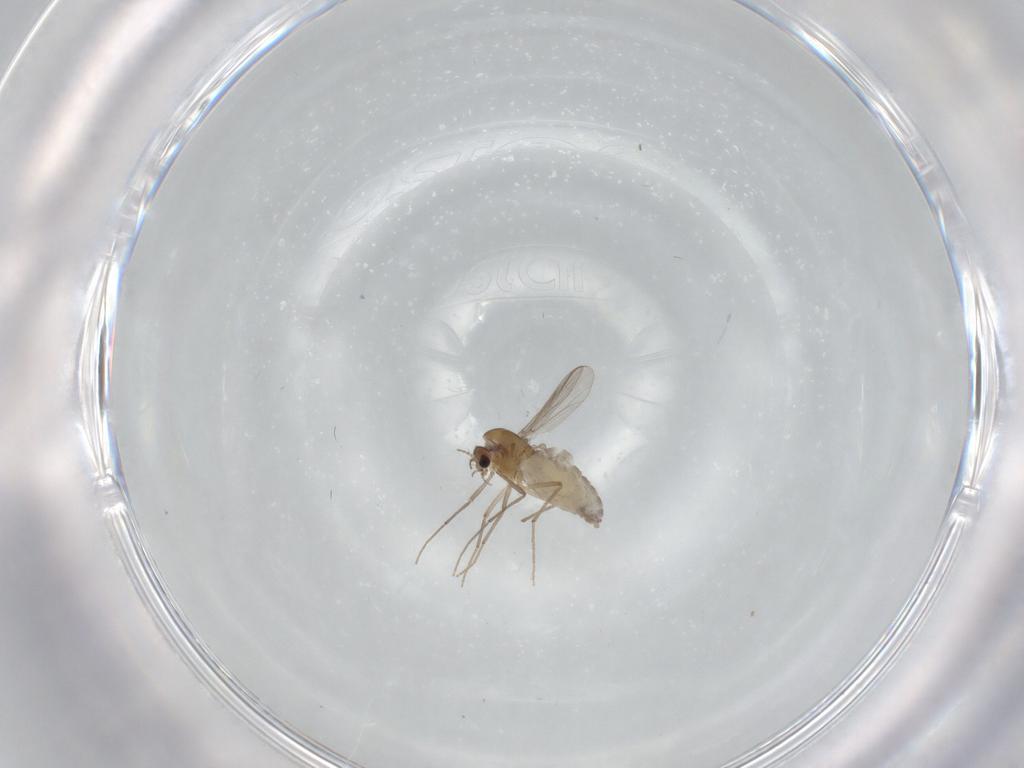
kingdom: Animalia
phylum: Arthropoda
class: Insecta
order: Diptera
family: Chironomidae
